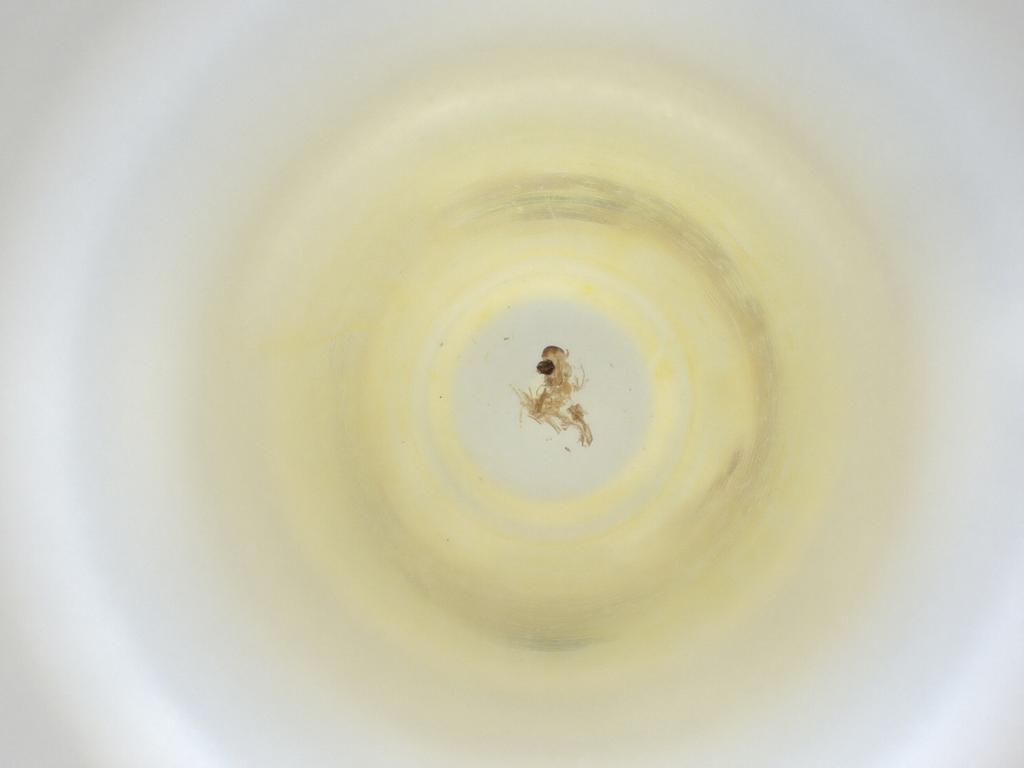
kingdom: Animalia
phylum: Arthropoda
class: Insecta
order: Diptera
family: Cecidomyiidae
